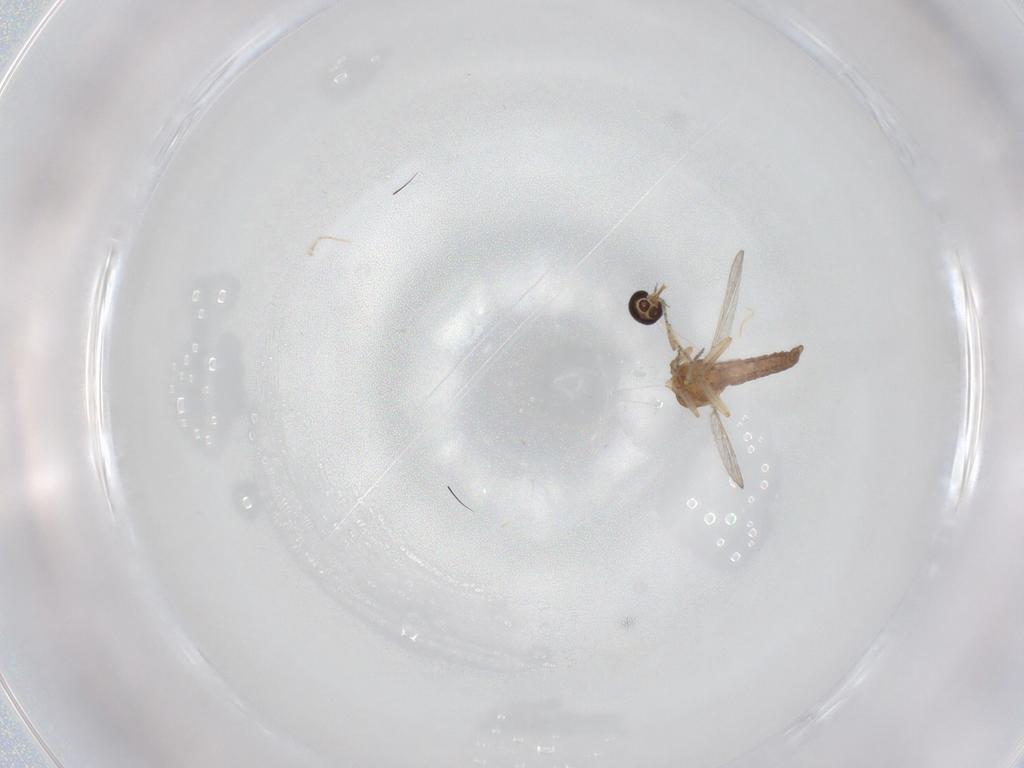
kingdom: Animalia
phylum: Arthropoda
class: Insecta
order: Diptera
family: Ceratopogonidae
